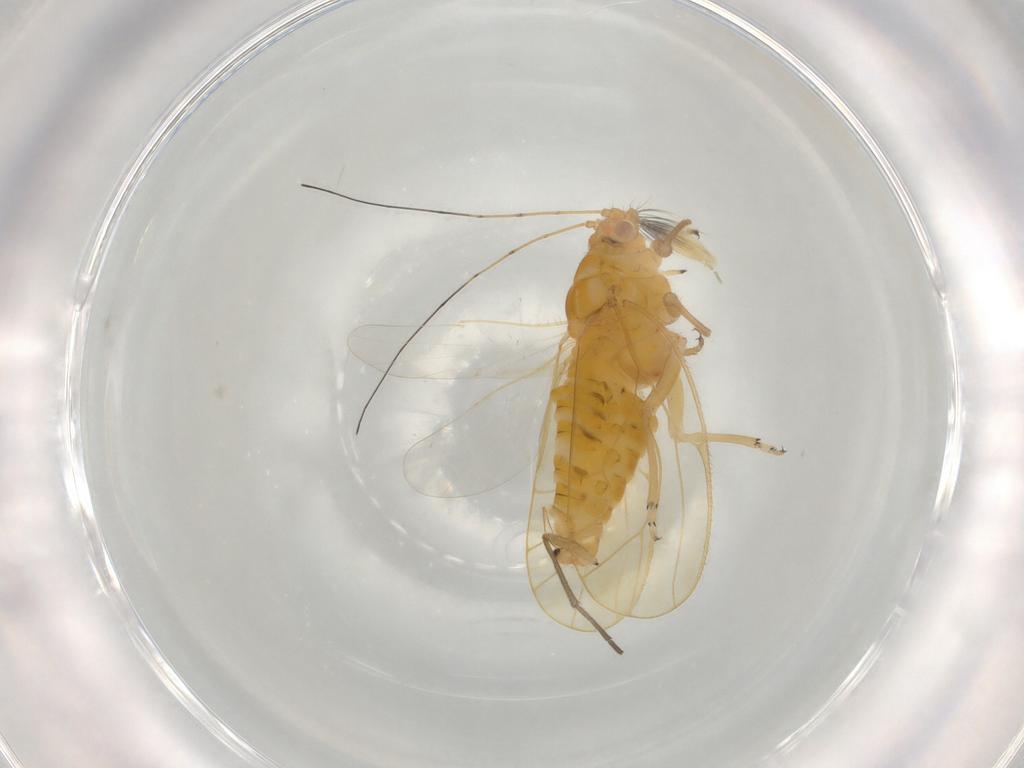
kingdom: Animalia
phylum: Arthropoda
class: Insecta
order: Hemiptera
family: Psyllidae
